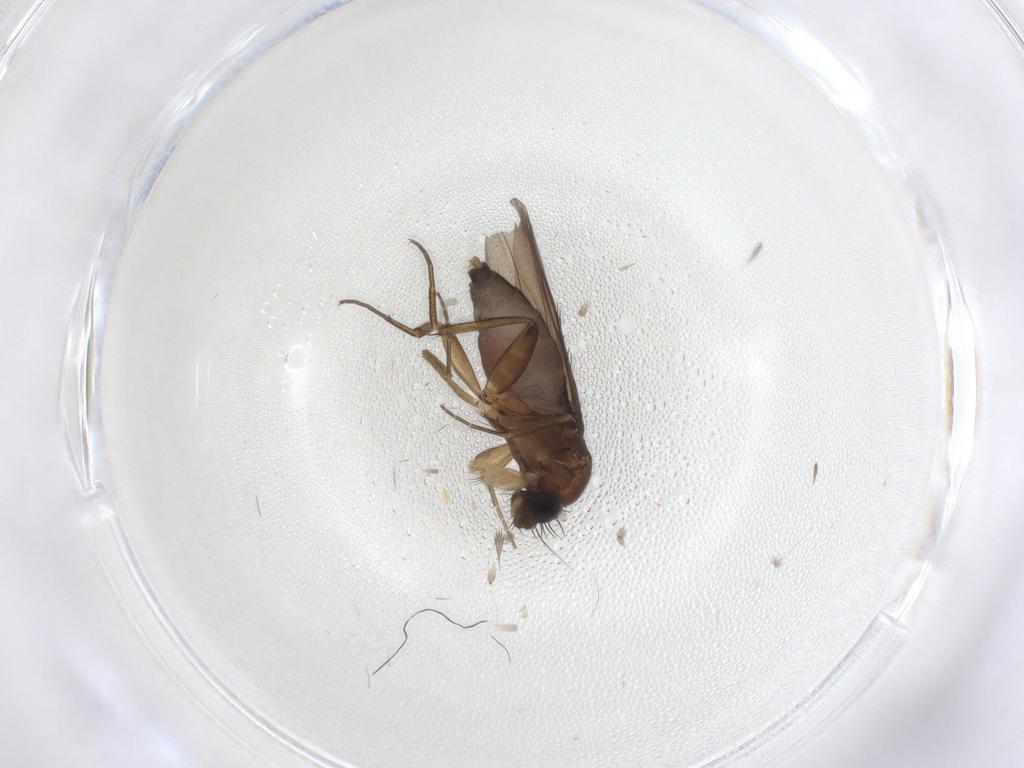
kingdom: Animalia
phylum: Arthropoda
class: Insecta
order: Diptera
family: Phoridae
